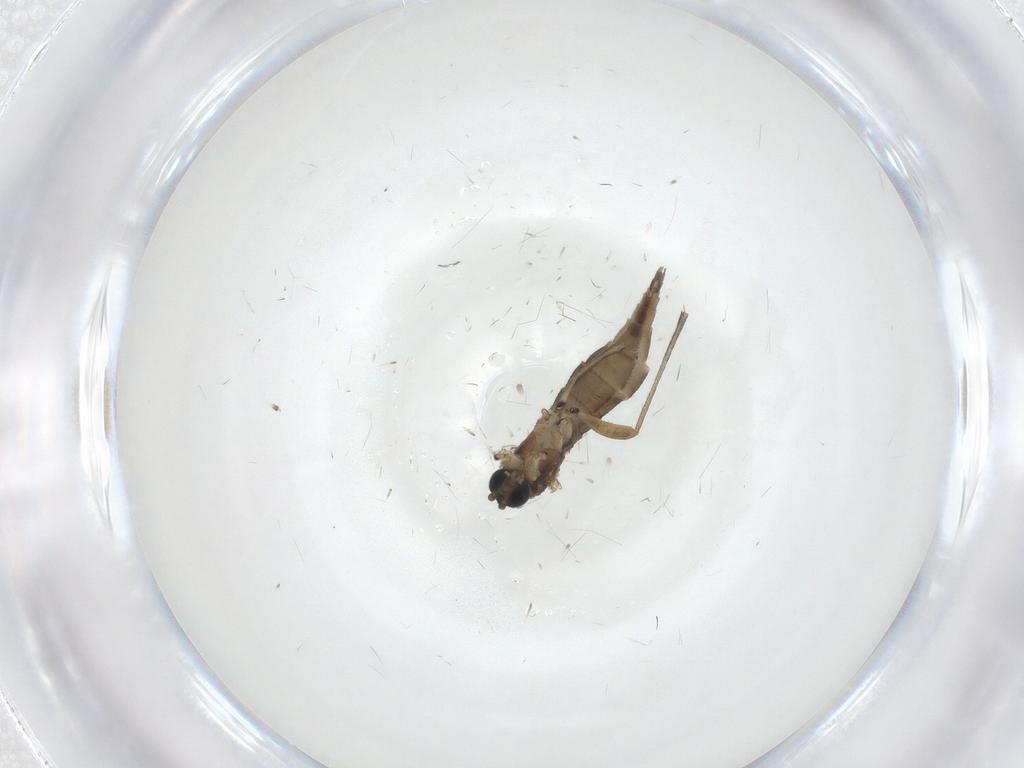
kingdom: Animalia
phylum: Arthropoda
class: Insecta
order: Diptera
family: Sciaridae
